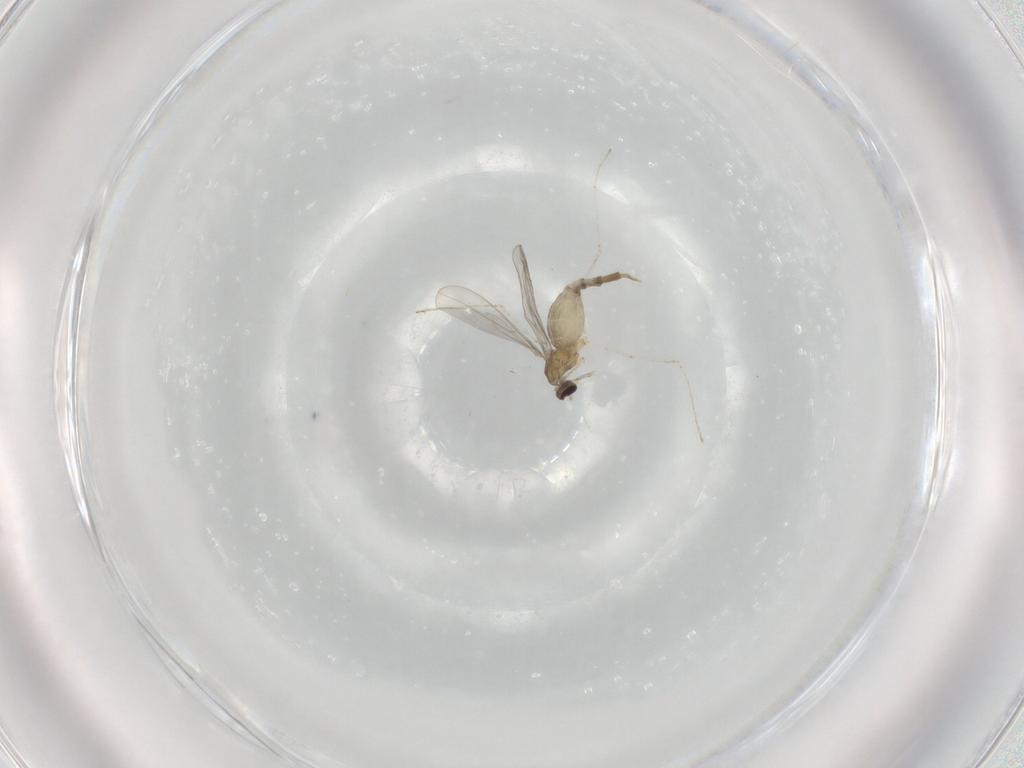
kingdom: Animalia
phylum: Arthropoda
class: Insecta
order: Diptera
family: Cecidomyiidae
